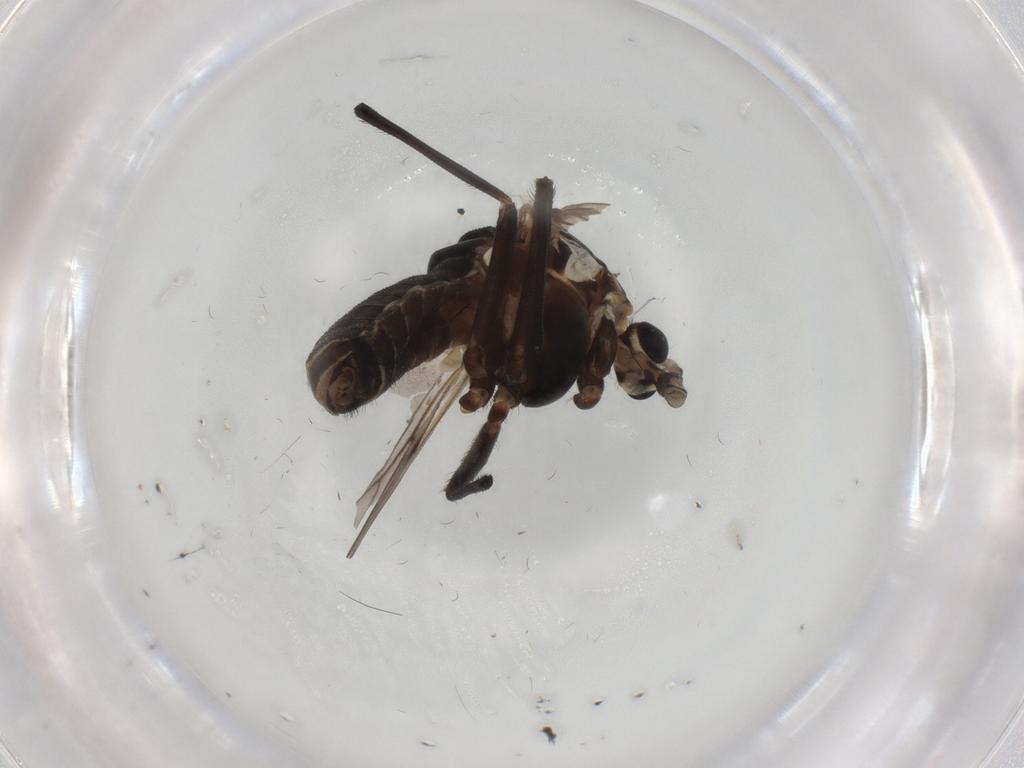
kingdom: Animalia
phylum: Arthropoda
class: Insecta
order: Diptera
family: Chironomidae
